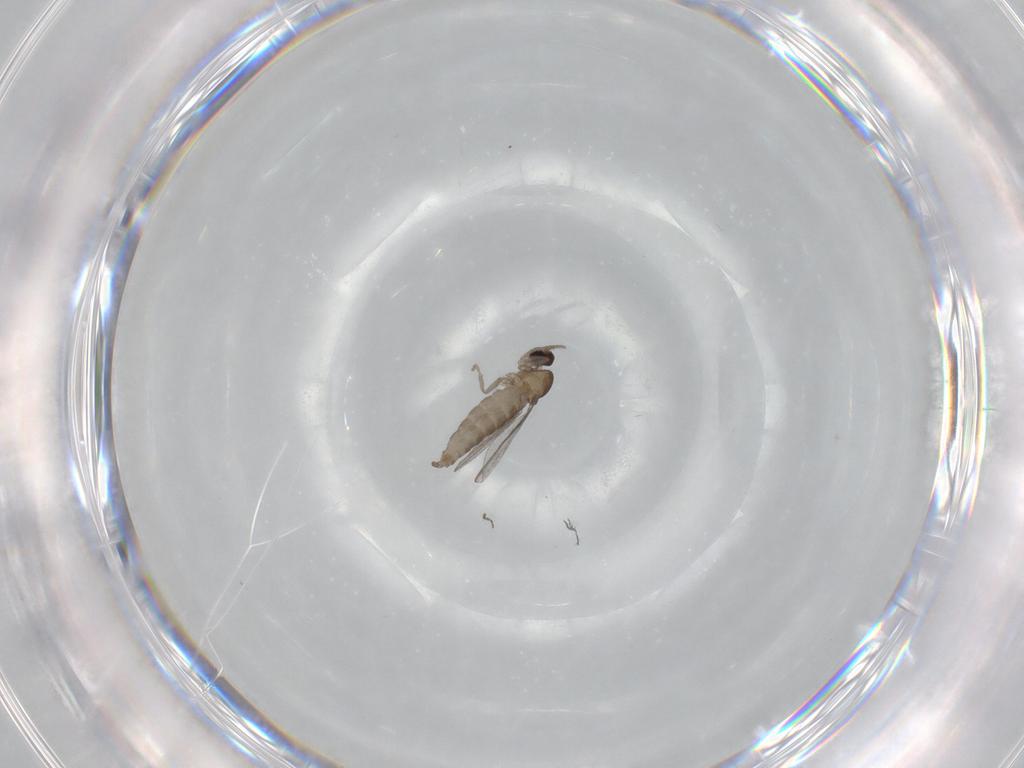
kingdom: Animalia
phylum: Arthropoda
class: Insecta
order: Diptera
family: Cecidomyiidae
